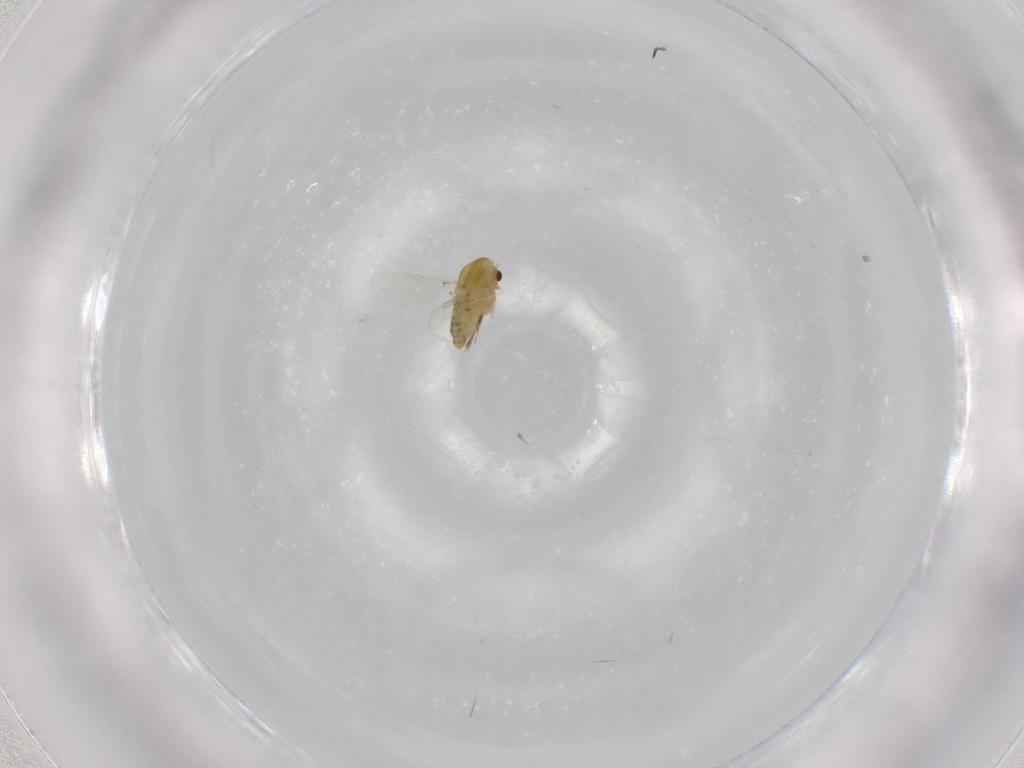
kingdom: Animalia
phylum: Arthropoda
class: Insecta
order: Diptera
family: Chironomidae
